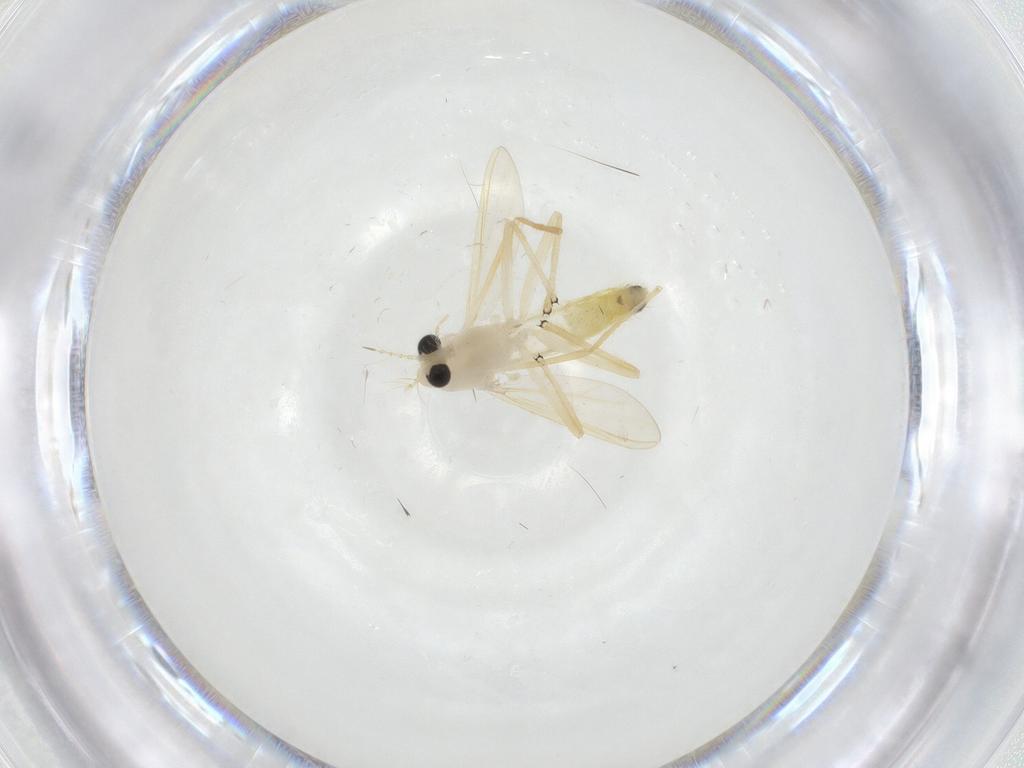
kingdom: Animalia
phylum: Arthropoda
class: Insecta
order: Diptera
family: Chironomidae
